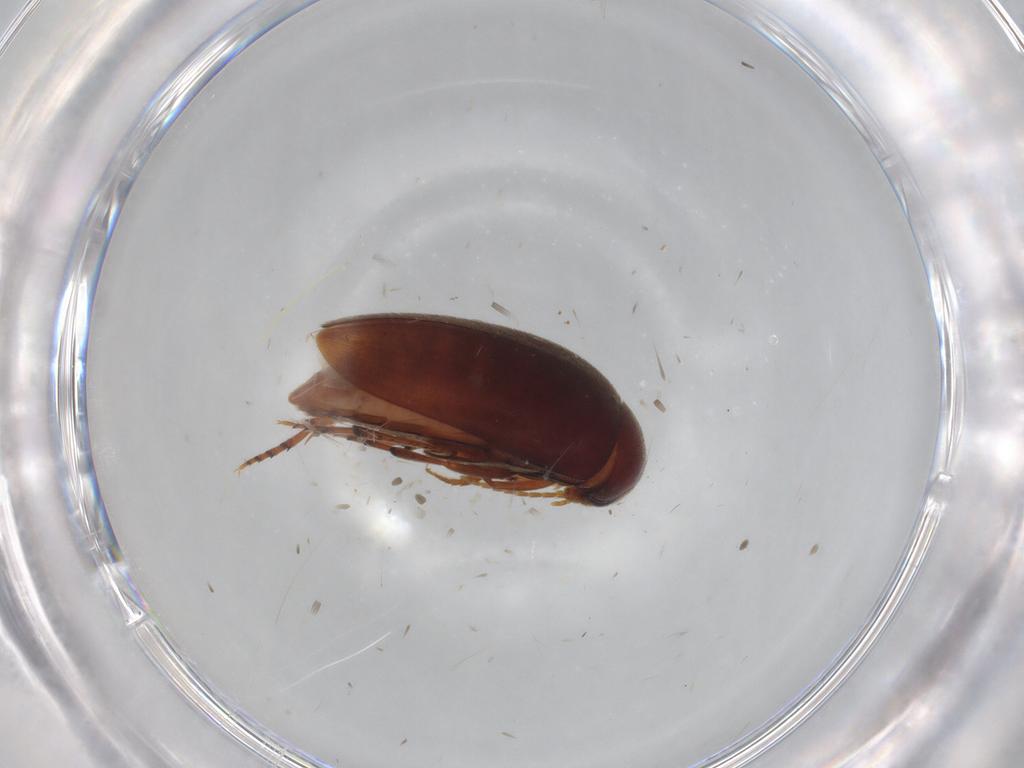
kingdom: Animalia
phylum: Arthropoda
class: Insecta
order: Coleoptera
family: Eucinetidae
